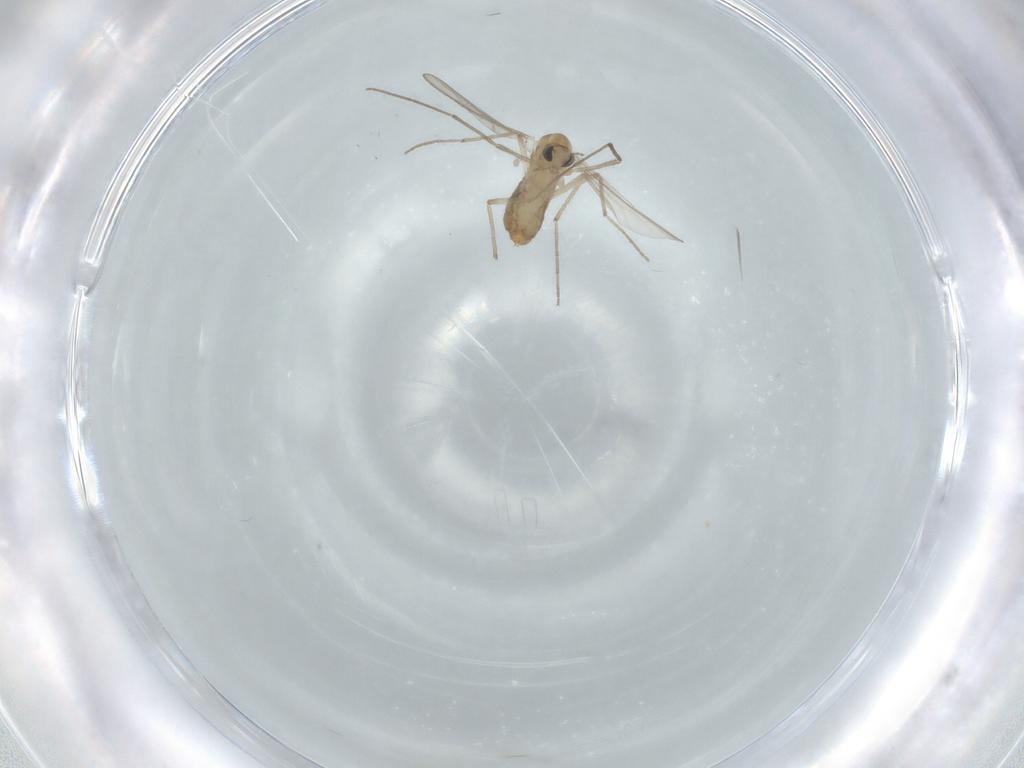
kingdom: Animalia
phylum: Arthropoda
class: Insecta
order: Diptera
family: Chironomidae
